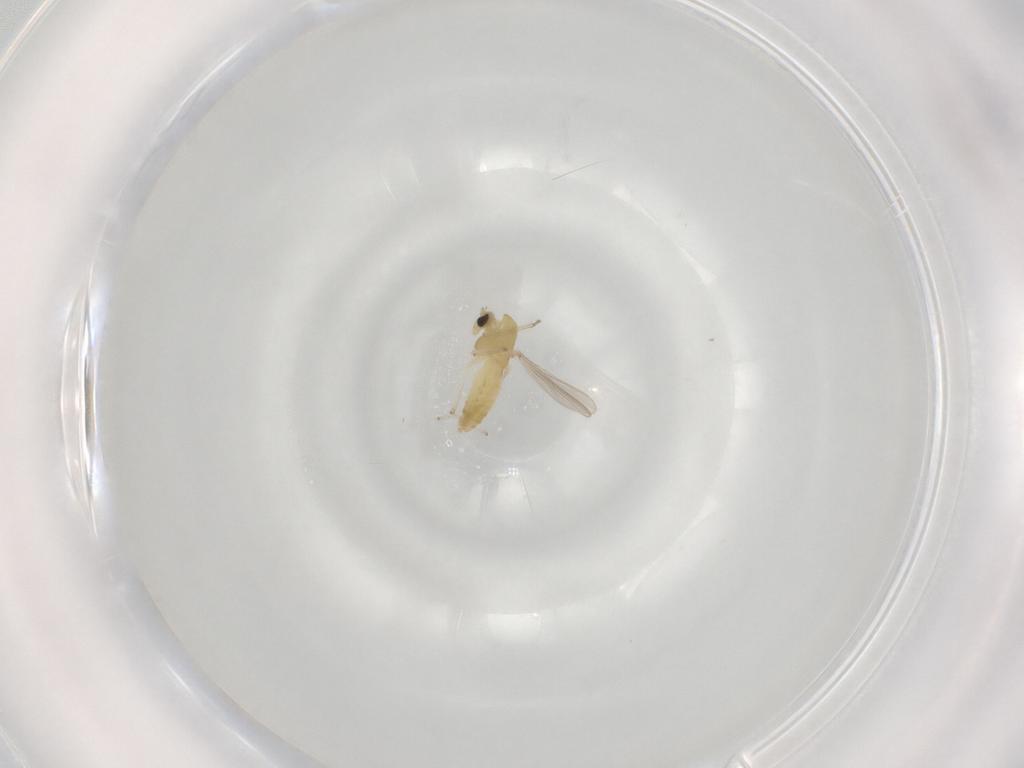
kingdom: Animalia
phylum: Arthropoda
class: Insecta
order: Diptera
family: Chironomidae
